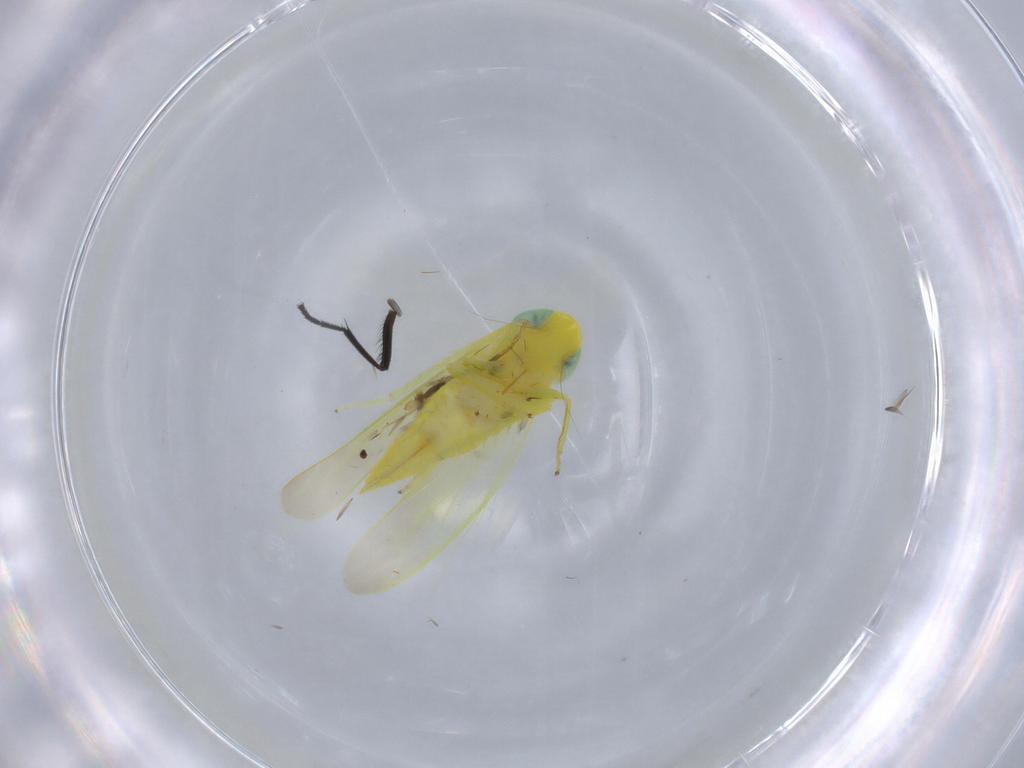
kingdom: Animalia
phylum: Arthropoda
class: Insecta
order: Hemiptera
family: Cicadellidae
